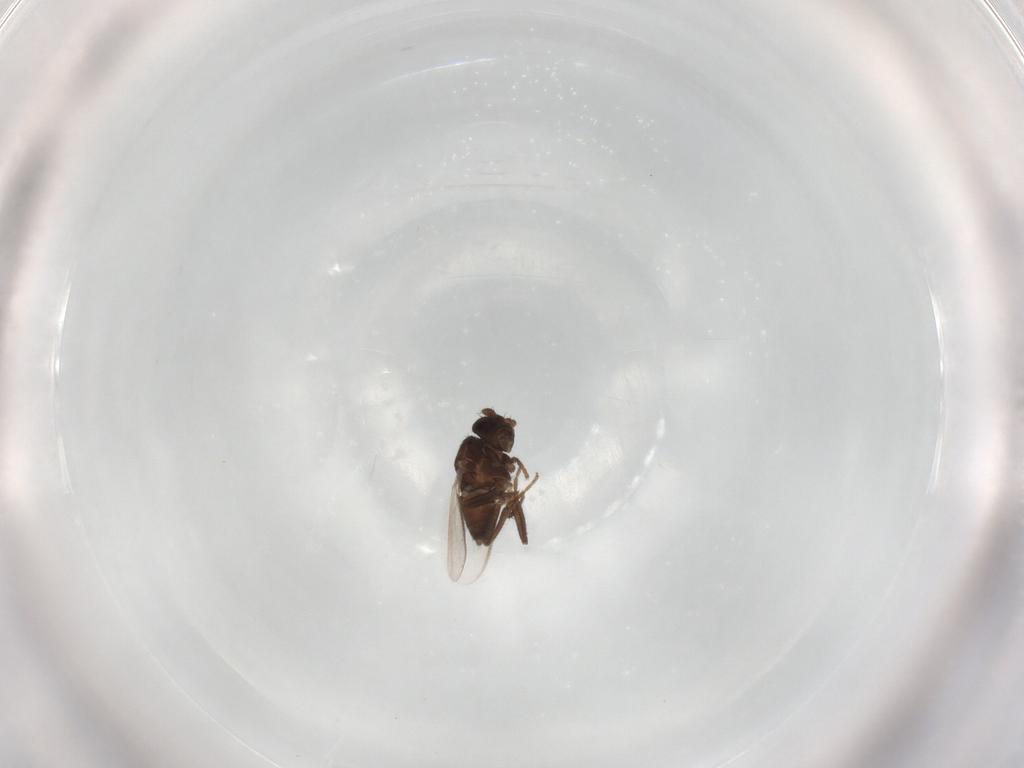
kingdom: Animalia
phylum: Arthropoda
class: Insecta
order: Diptera
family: Sphaeroceridae
